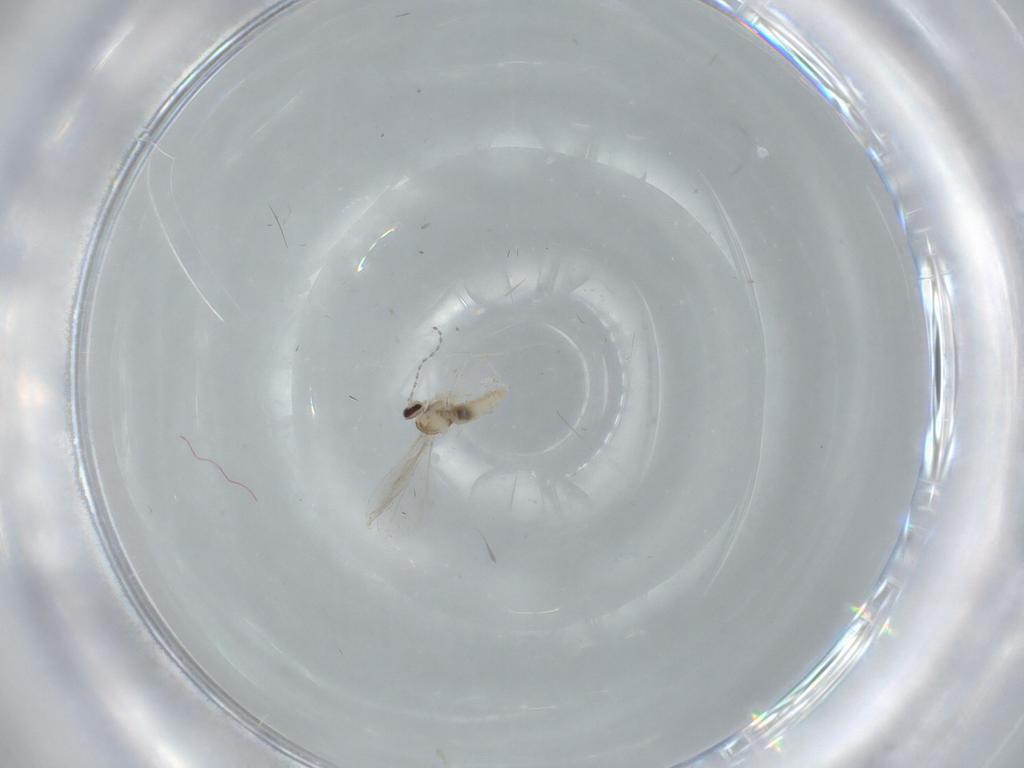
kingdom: Animalia
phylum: Arthropoda
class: Insecta
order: Diptera
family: Cecidomyiidae
